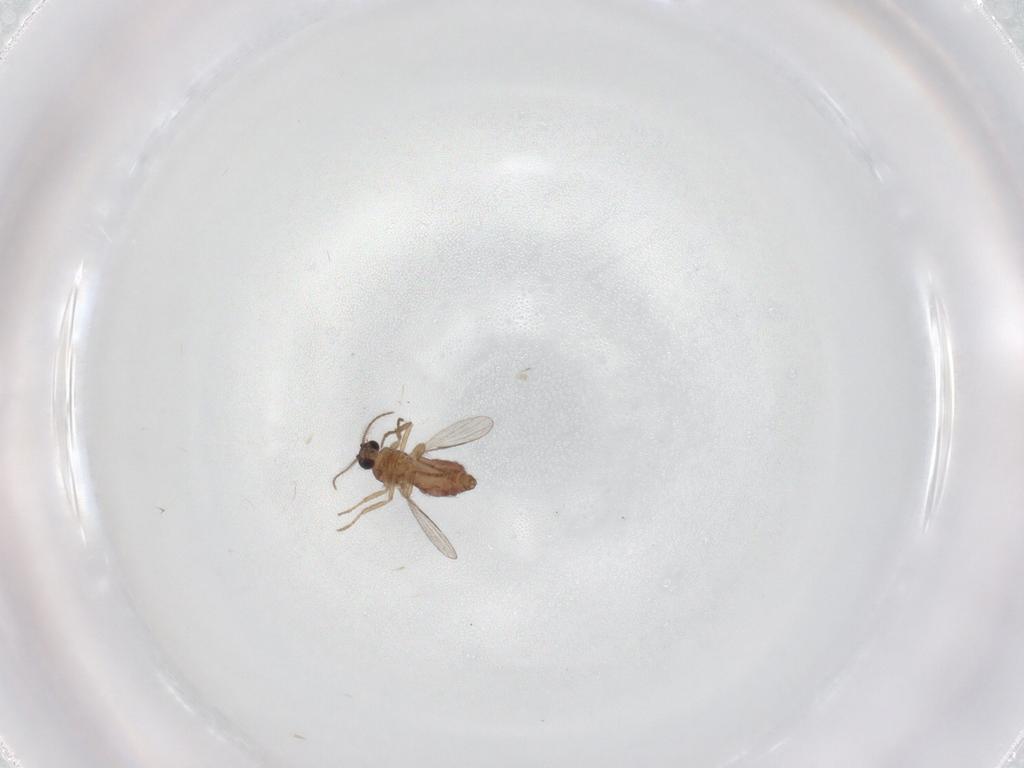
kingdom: Animalia
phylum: Arthropoda
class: Insecta
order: Diptera
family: Ceratopogonidae
